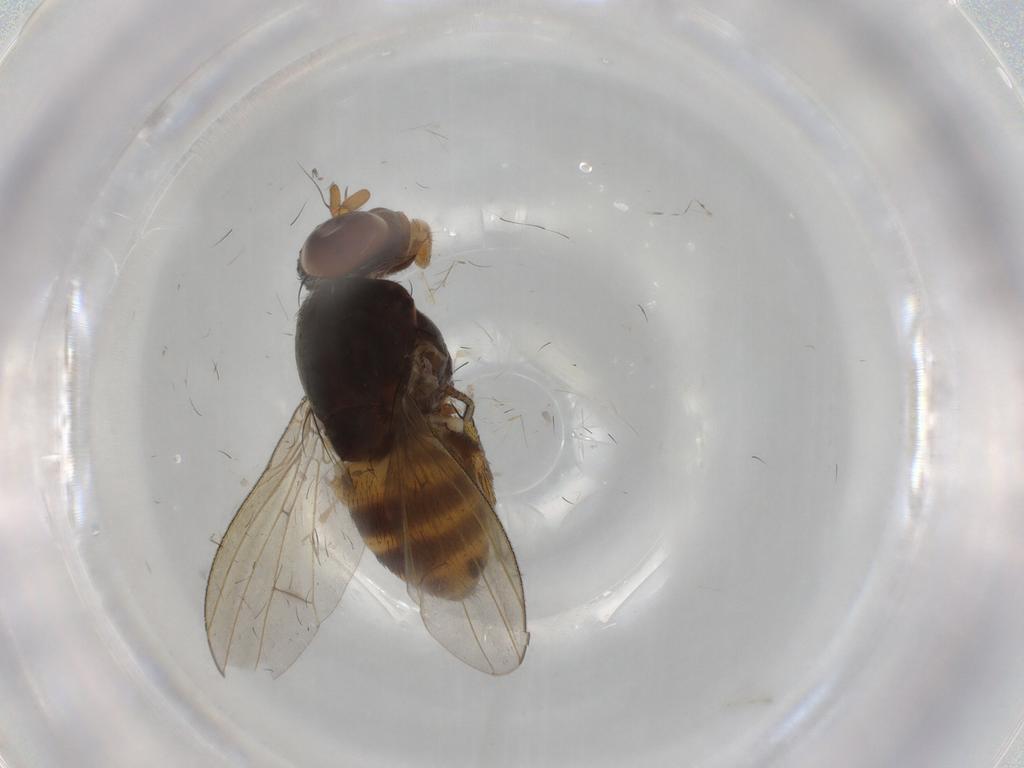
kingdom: Animalia
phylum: Arthropoda
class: Insecta
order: Diptera
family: Lauxaniidae
